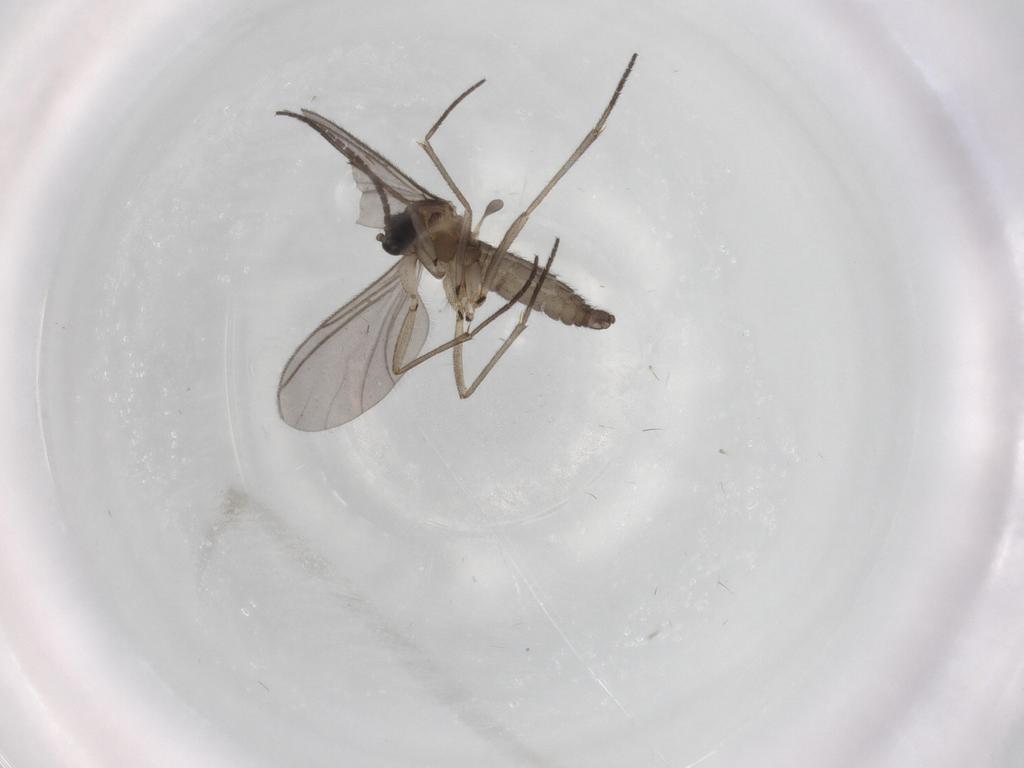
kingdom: Animalia
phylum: Arthropoda
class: Insecta
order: Diptera
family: Sciaridae
